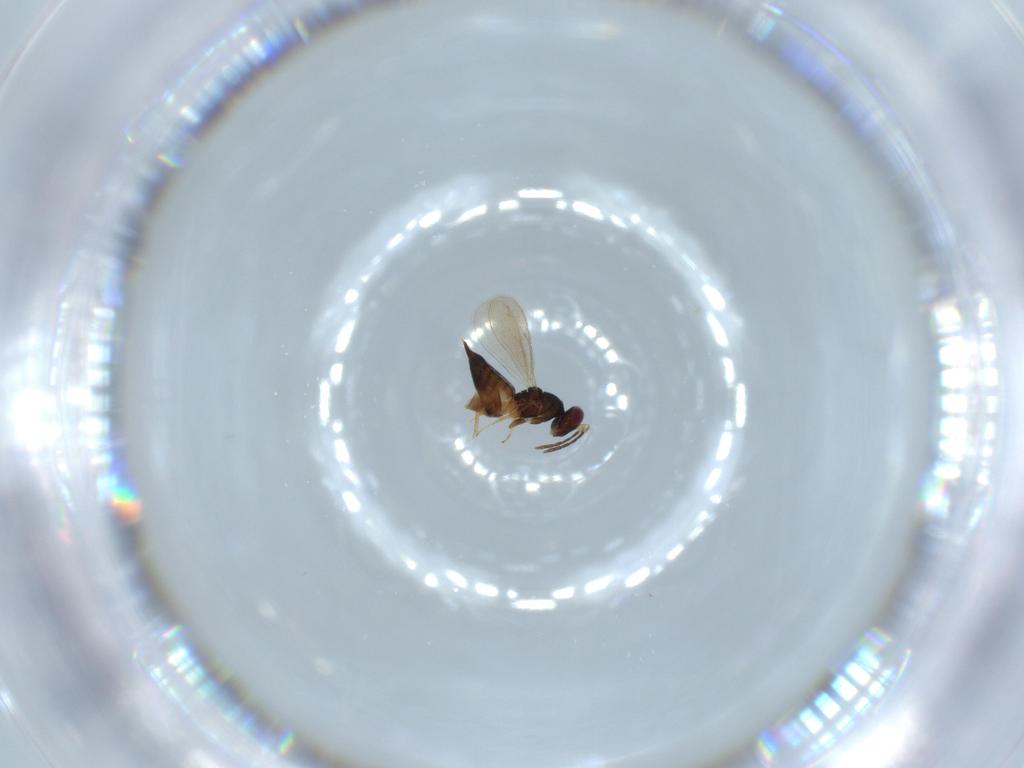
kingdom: Animalia
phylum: Arthropoda
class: Insecta
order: Hymenoptera
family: Eulophidae
